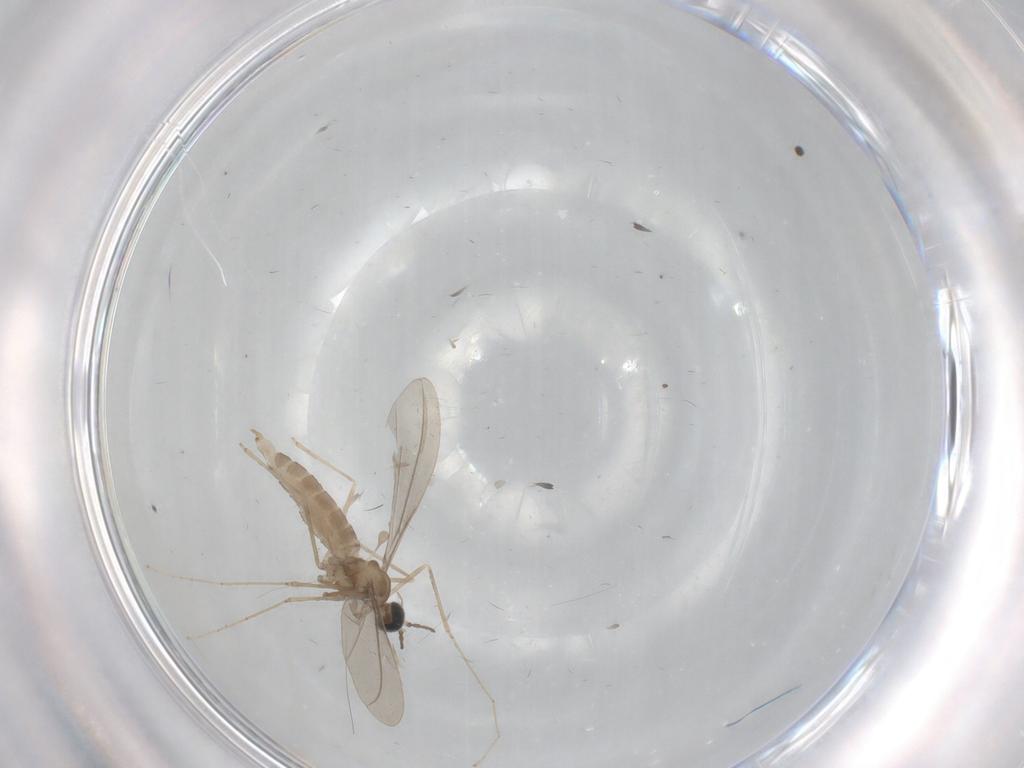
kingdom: Animalia
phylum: Arthropoda
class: Insecta
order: Diptera
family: Cecidomyiidae
